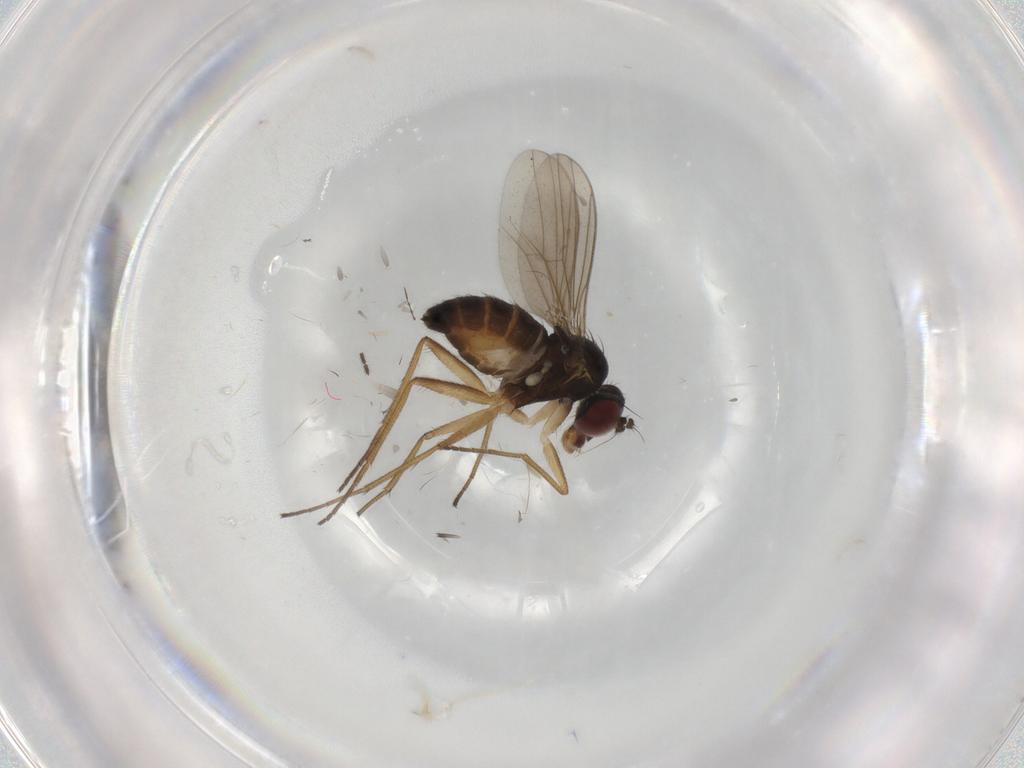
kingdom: Animalia
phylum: Arthropoda
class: Insecta
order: Diptera
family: Dolichopodidae
